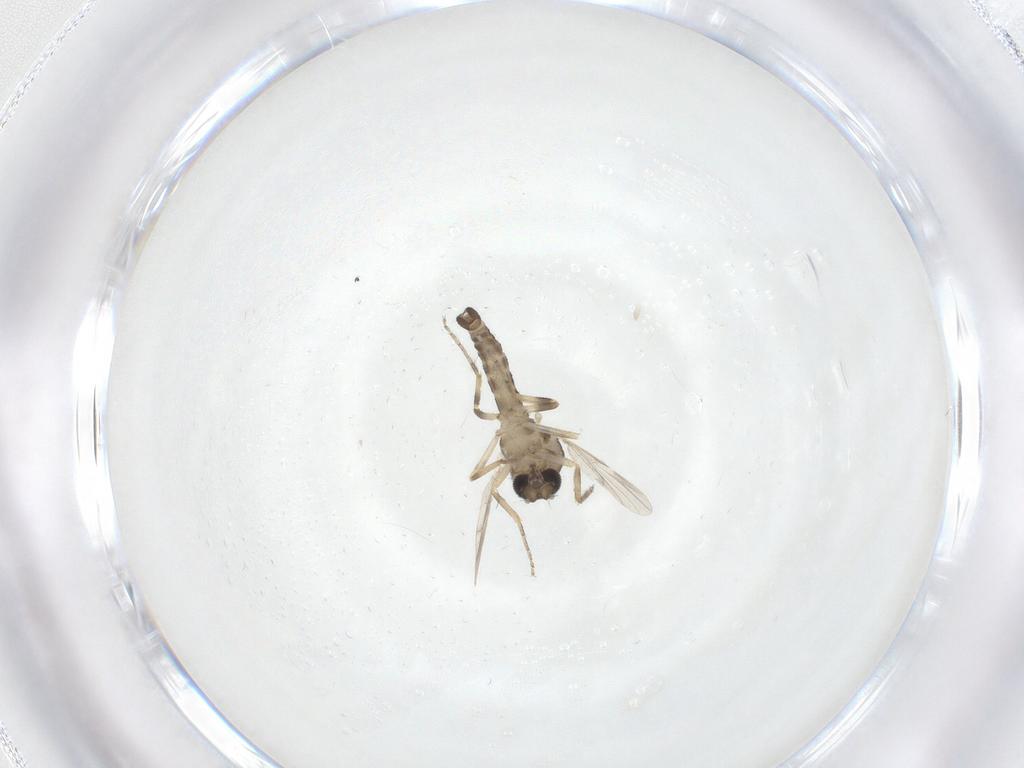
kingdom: Animalia
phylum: Arthropoda
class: Insecta
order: Diptera
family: Ceratopogonidae
